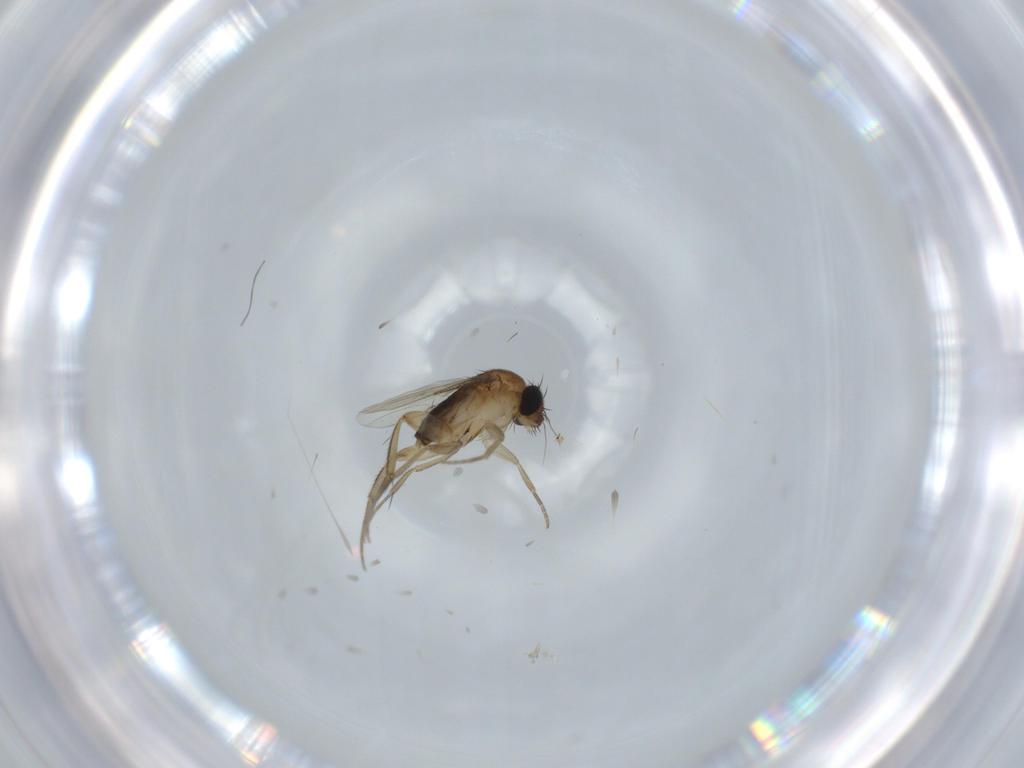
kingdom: Animalia
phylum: Arthropoda
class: Insecta
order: Diptera
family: Phoridae
